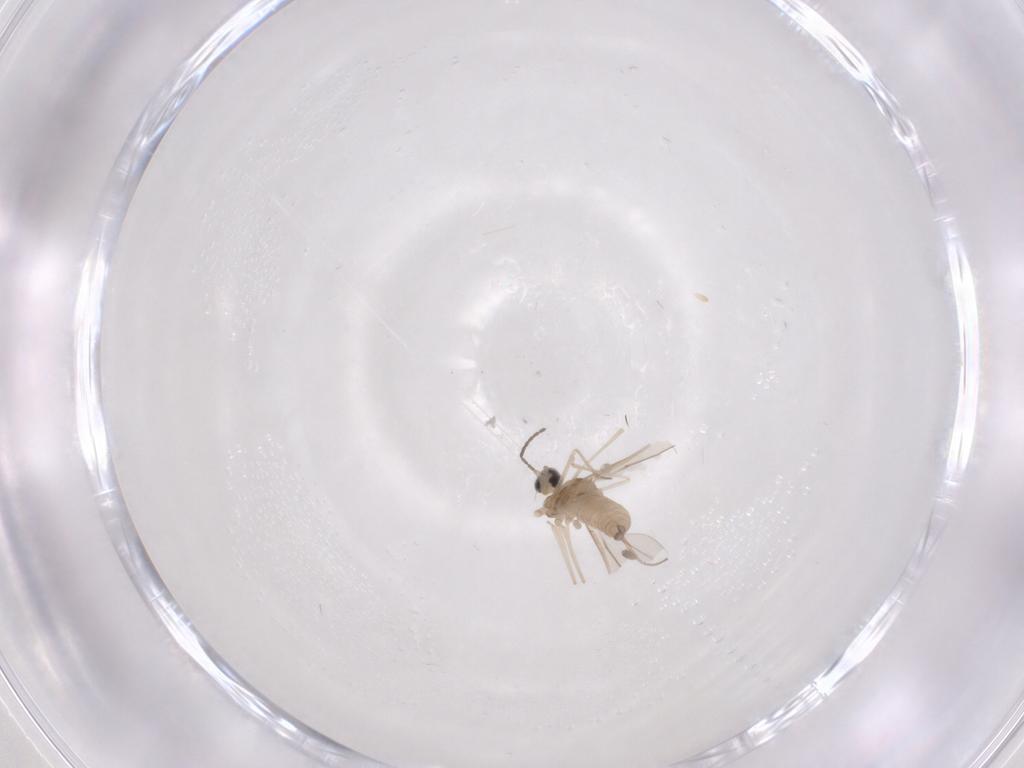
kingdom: Animalia
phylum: Arthropoda
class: Insecta
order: Diptera
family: Cecidomyiidae
